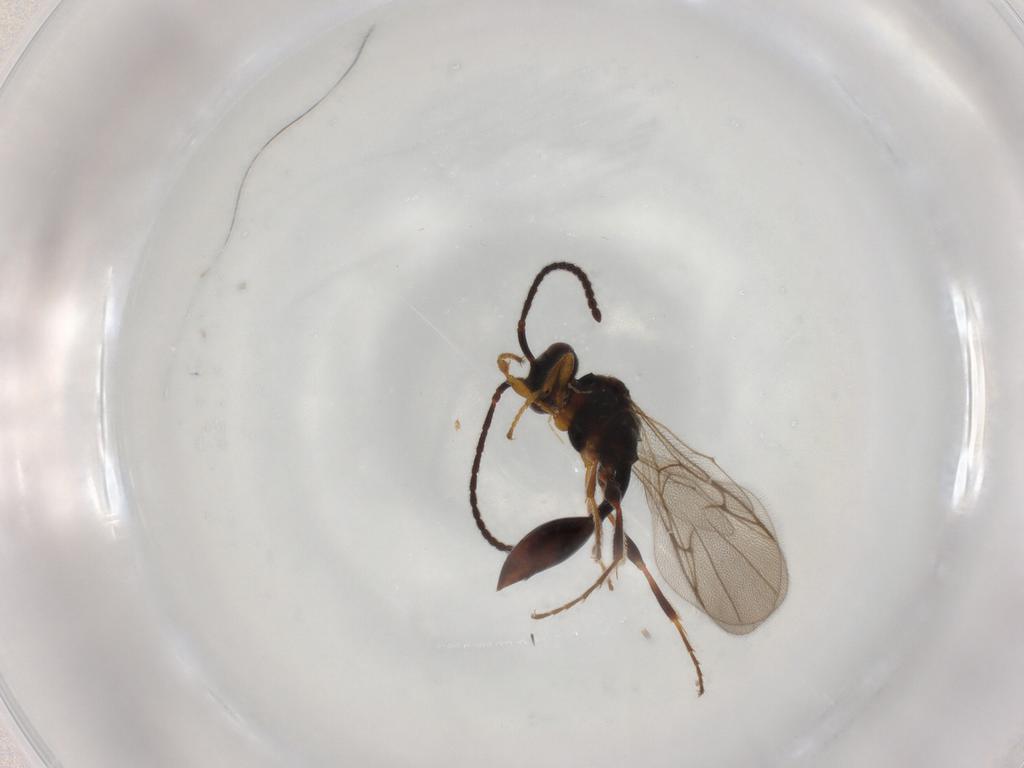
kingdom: Animalia
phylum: Arthropoda
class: Insecta
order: Hymenoptera
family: Diapriidae
